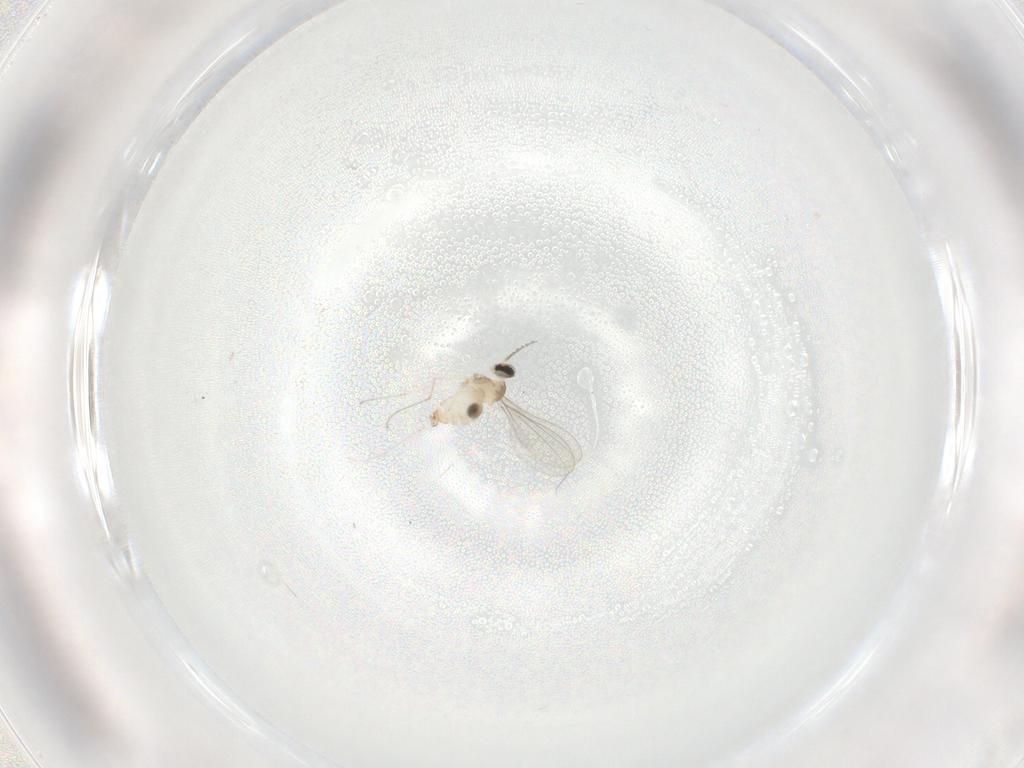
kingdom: Animalia
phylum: Arthropoda
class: Insecta
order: Diptera
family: Cecidomyiidae
